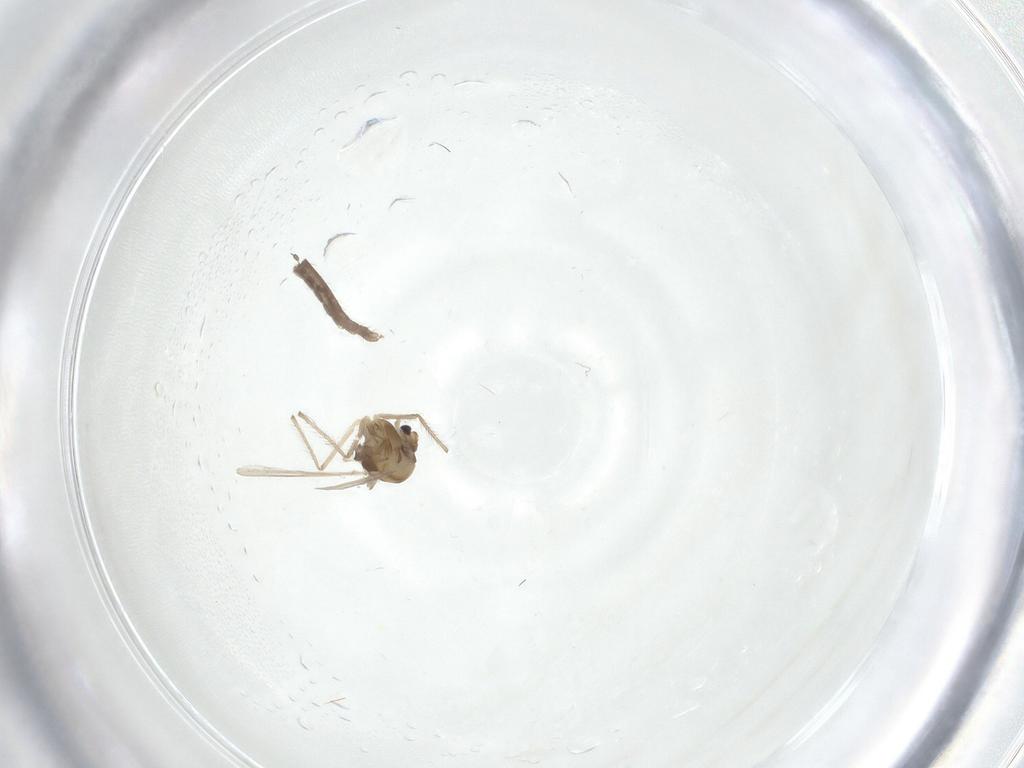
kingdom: Animalia
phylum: Arthropoda
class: Insecta
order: Diptera
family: Chironomidae
